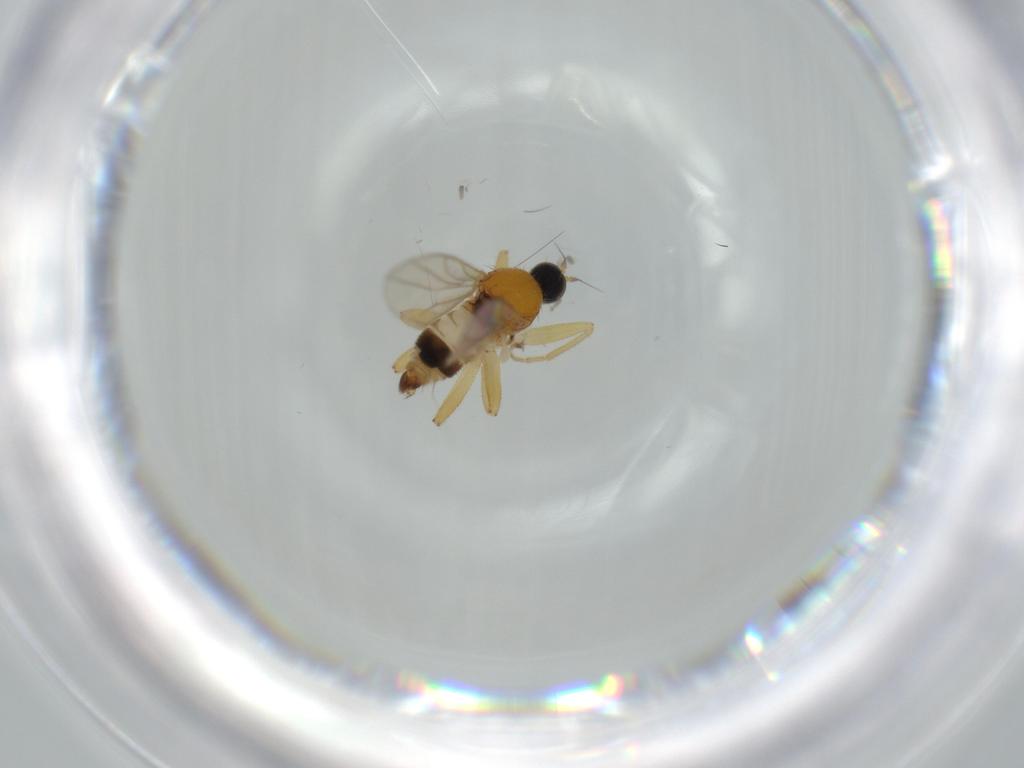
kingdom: Animalia
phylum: Arthropoda
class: Insecta
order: Diptera
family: Hybotidae
